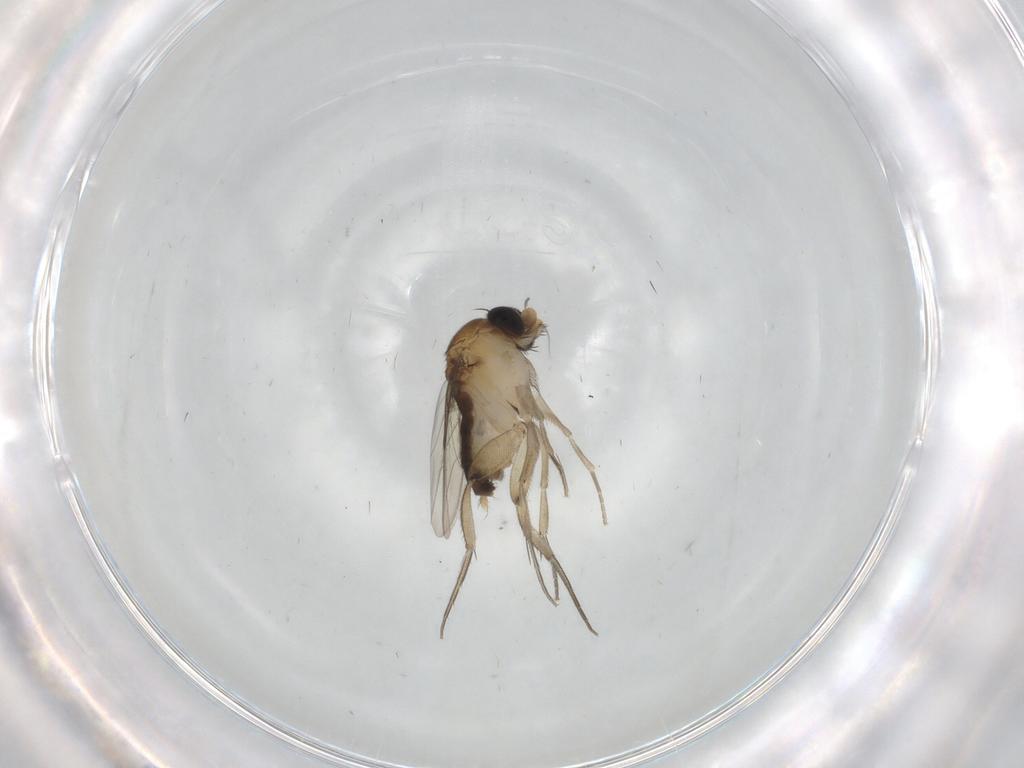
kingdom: Animalia
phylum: Arthropoda
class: Insecta
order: Diptera
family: Phoridae
